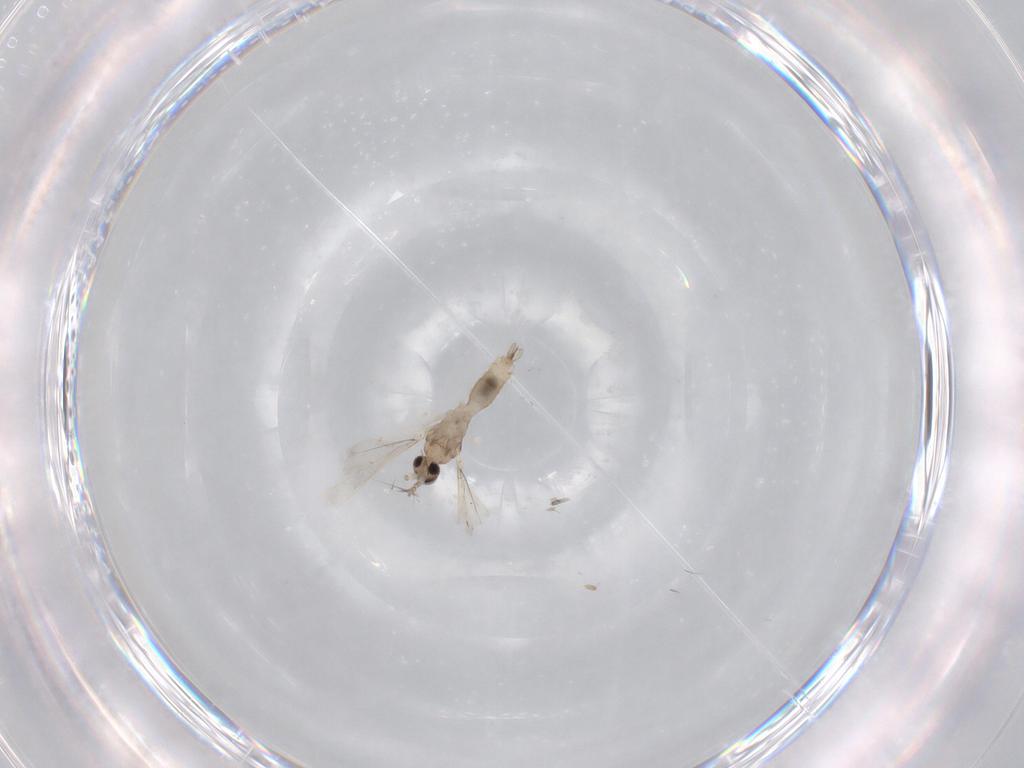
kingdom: Animalia
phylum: Arthropoda
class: Insecta
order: Diptera
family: Cecidomyiidae
